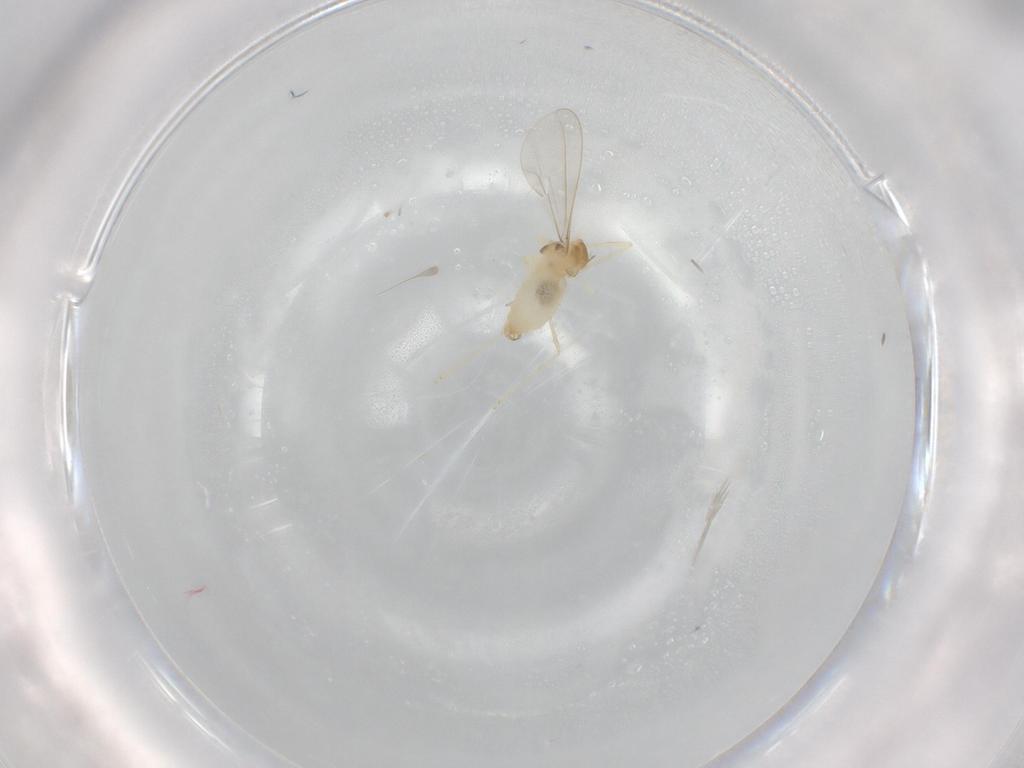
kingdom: Animalia
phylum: Arthropoda
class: Insecta
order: Diptera
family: Cecidomyiidae
